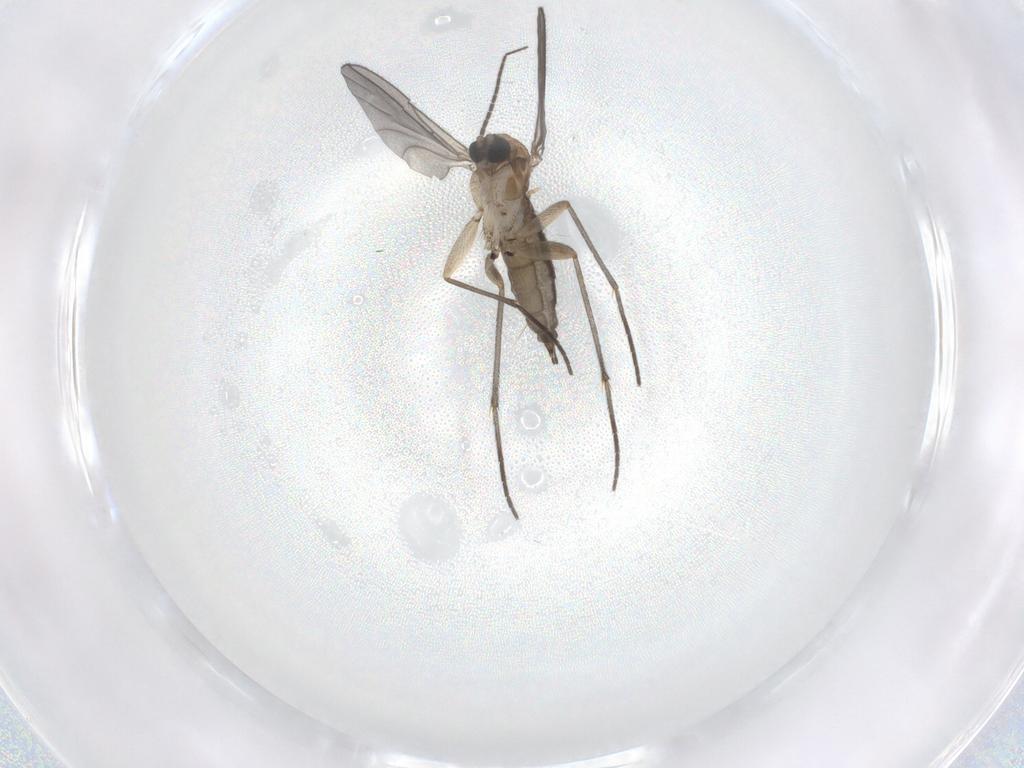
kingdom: Animalia
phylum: Arthropoda
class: Insecta
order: Diptera
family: Sciaridae
